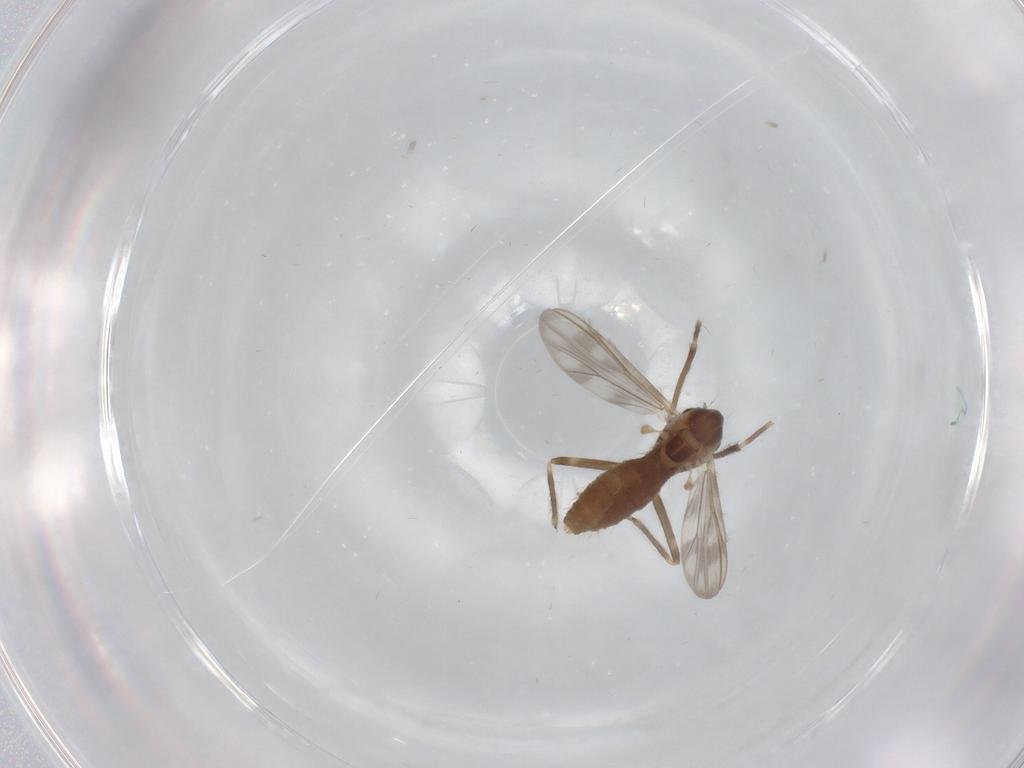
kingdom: Animalia
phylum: Arthropoda
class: Insecta
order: Diptera
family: Chironomidae
